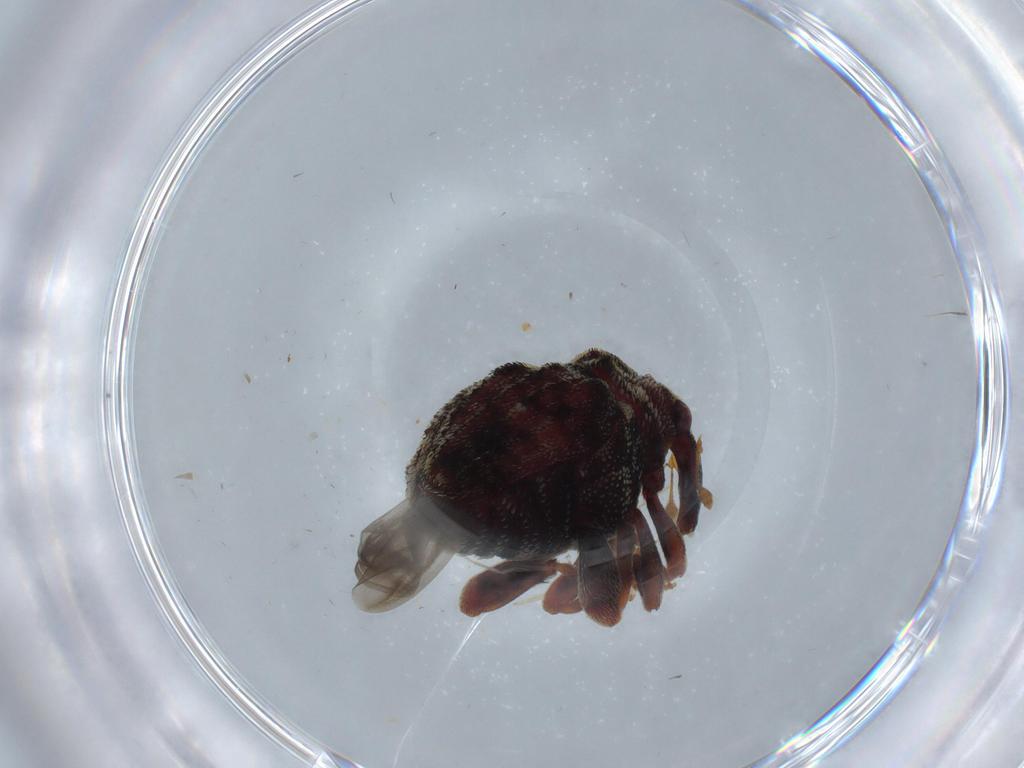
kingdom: Animalia
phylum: Arthropoda
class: Insecta
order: Coleoptera
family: Curculionidae
